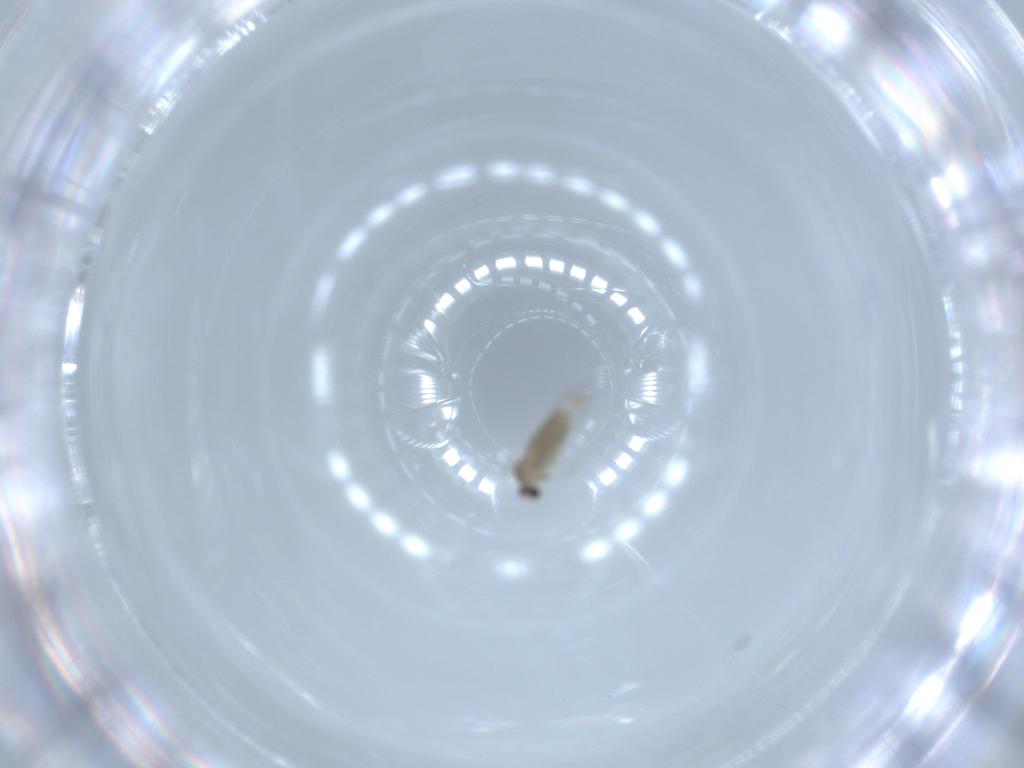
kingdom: Animalia
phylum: Arthropoda
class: Insecta
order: Diptera
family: Cecidomyiidae
